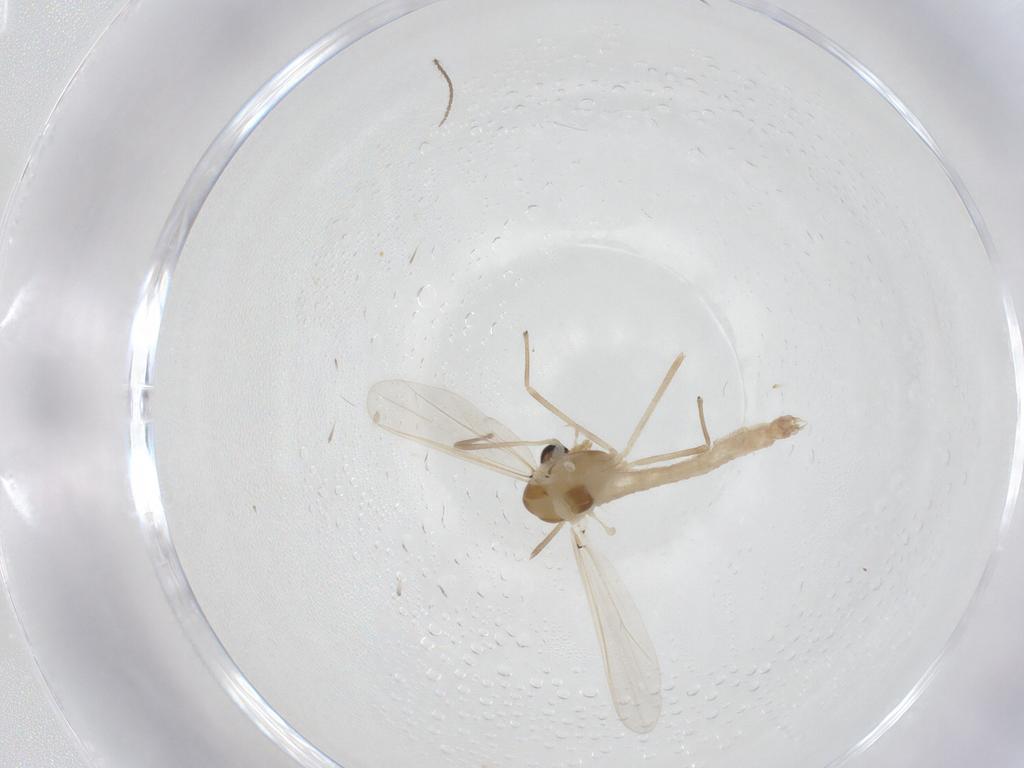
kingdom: Animalia
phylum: Arthropoda
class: Insecta
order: Diptera
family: Chironomidae
